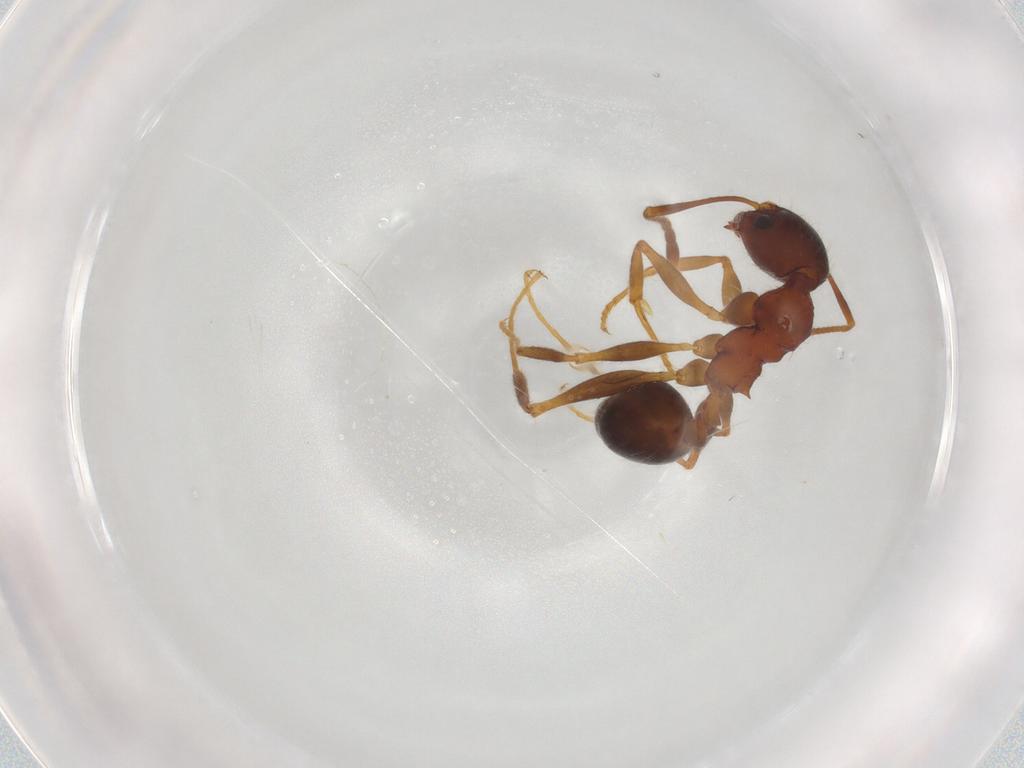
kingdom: Animalia
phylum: Arthropoda
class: Insecta
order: Hymenoptera
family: Formicidae
